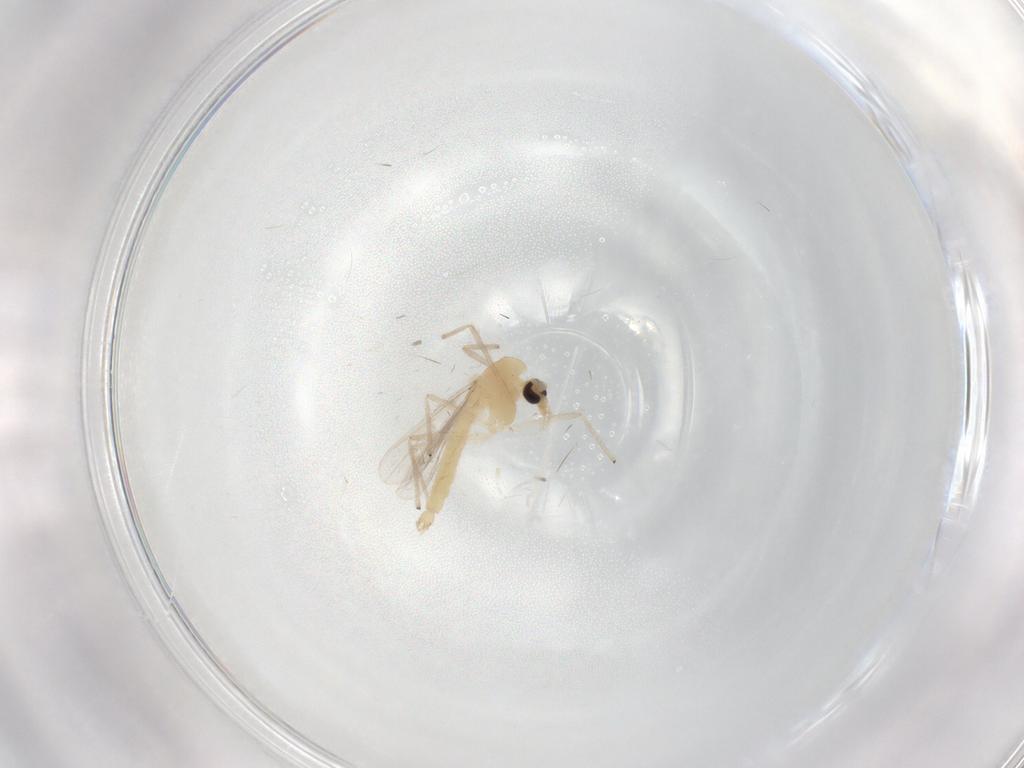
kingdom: Animalia
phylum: Arthropoda
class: Insecta
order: Diptera
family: Chironomidae
